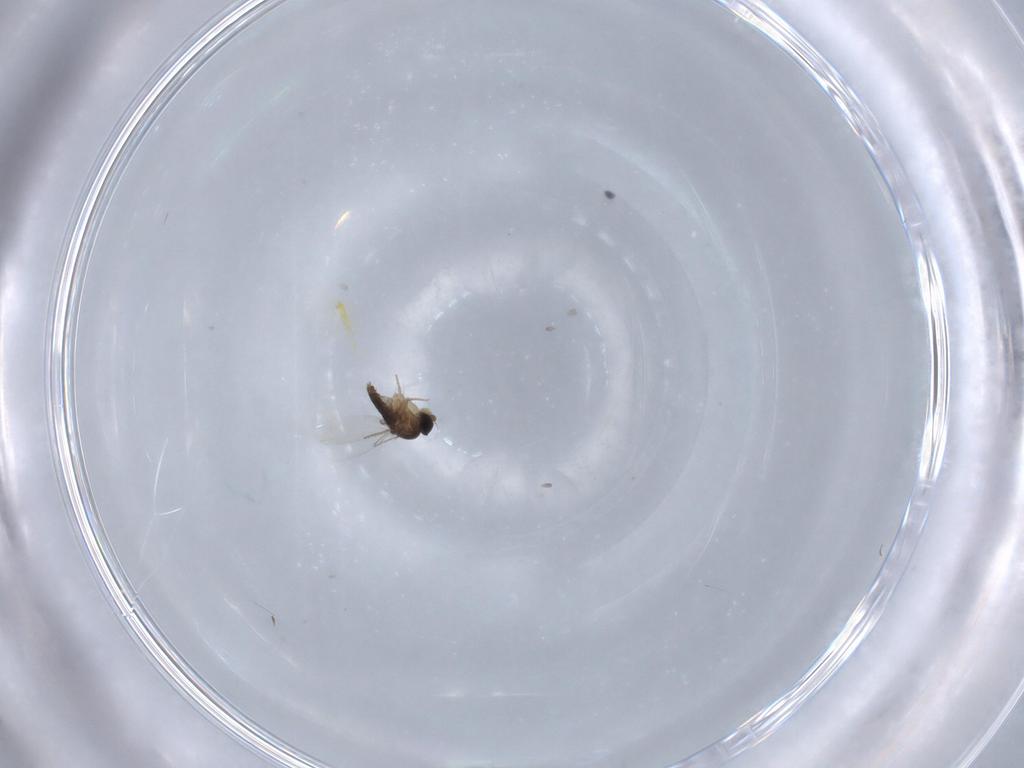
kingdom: Animalia
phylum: Arthropoda
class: Insecta
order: Diptera
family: Phoridae
